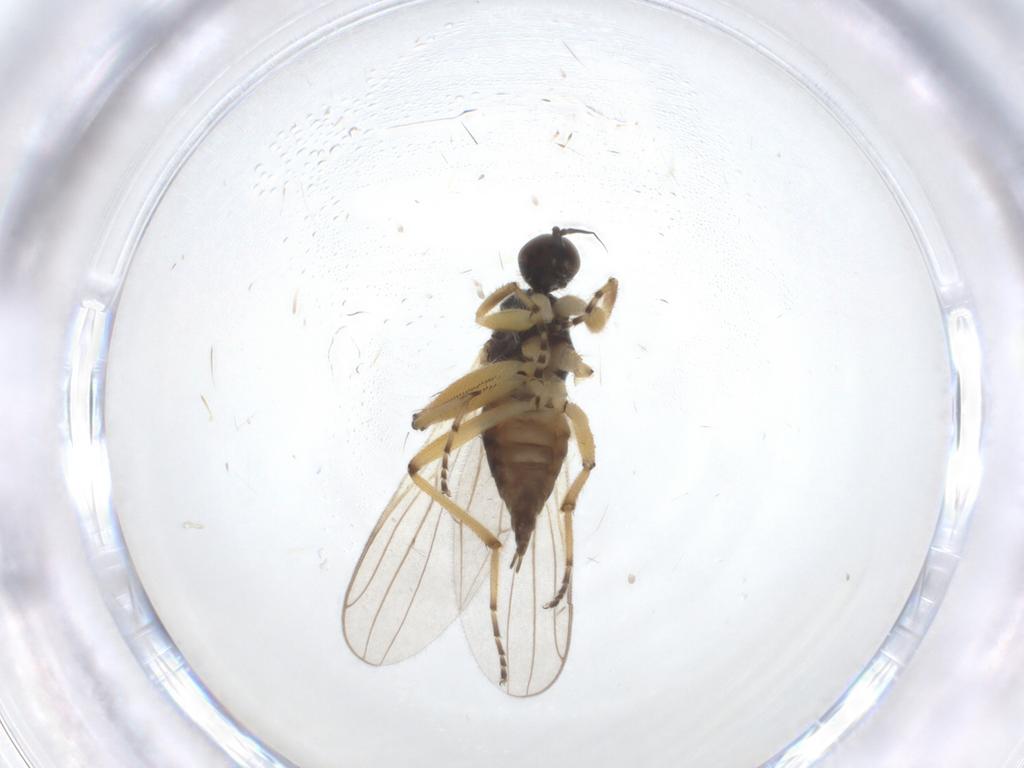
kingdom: Animalia
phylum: Arthropoda
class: Insecta
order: Diptera
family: Hybotidae
